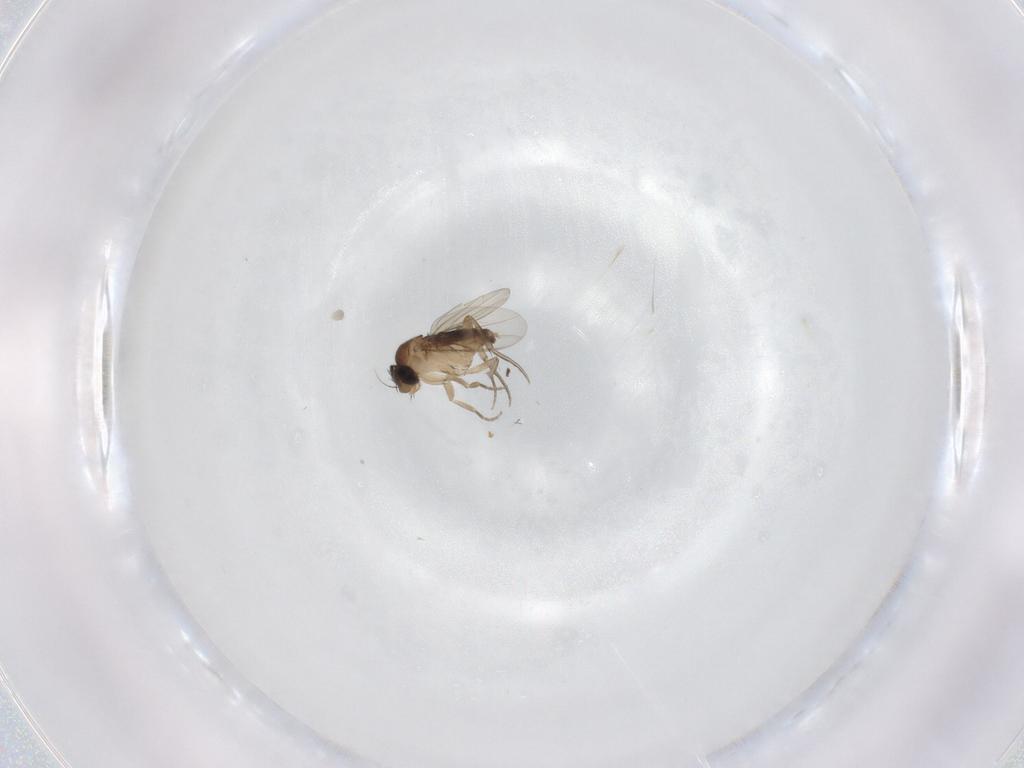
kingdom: Animalia
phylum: Arthropoda
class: Insecta
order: Diptera
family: Phoridae
